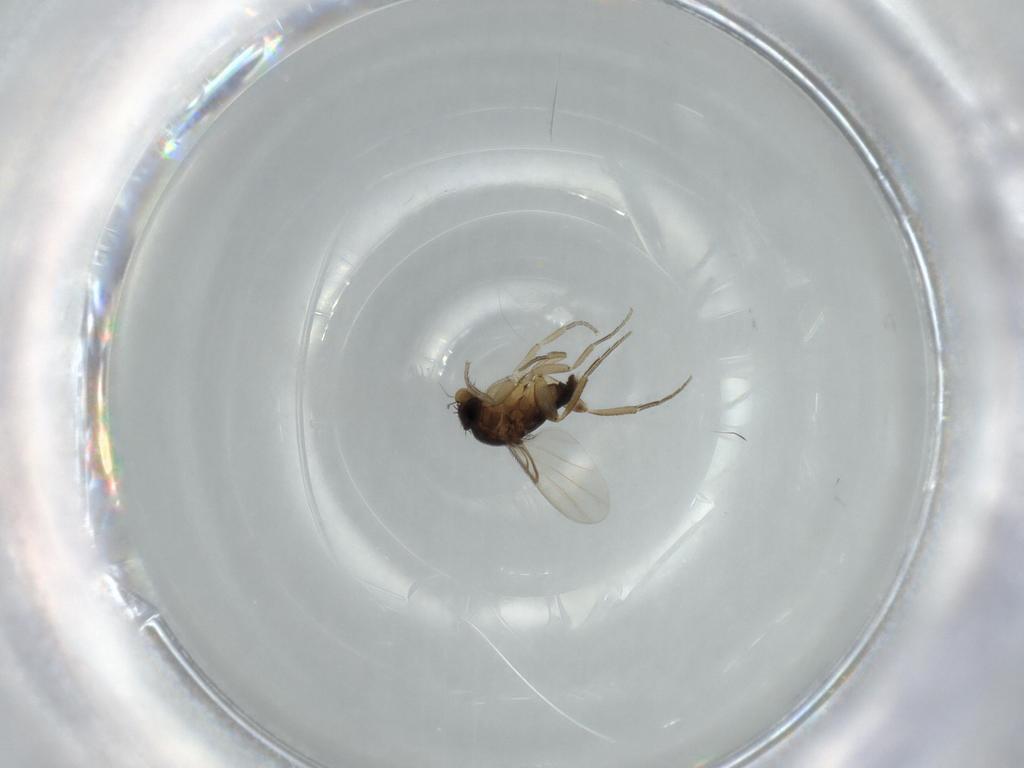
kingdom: Animalia
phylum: Arthropoda
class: Insecta
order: Diptera
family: Phoridae
